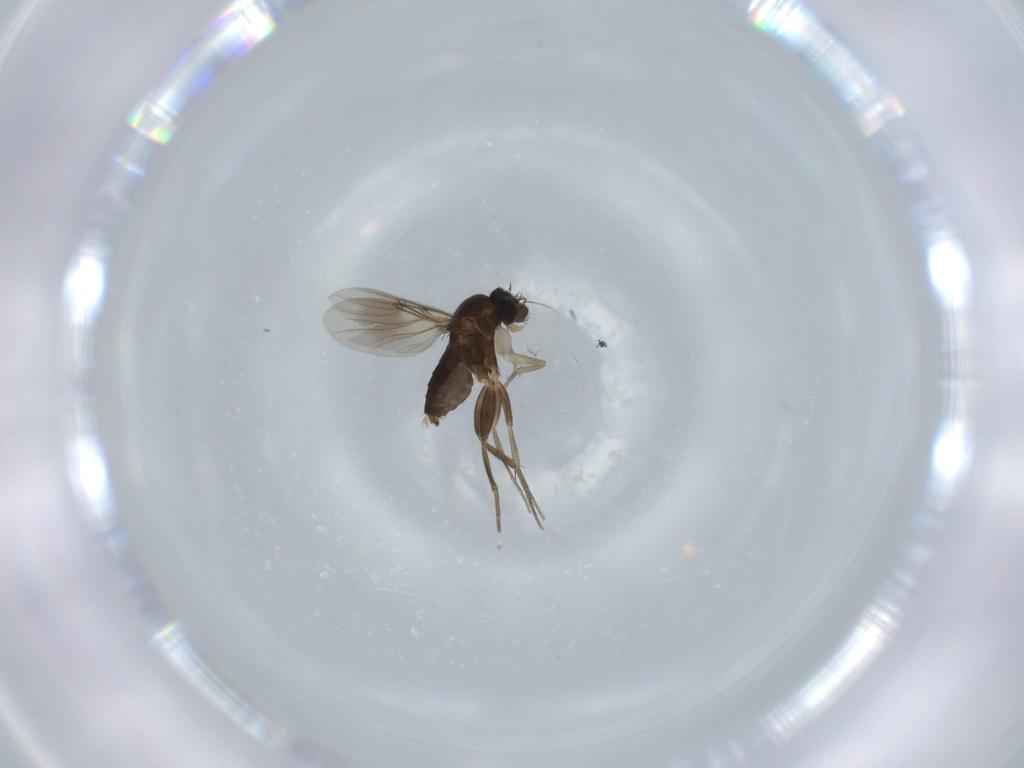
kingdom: Animalia
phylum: Arthropoda
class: Insecta
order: Diptera
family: Phoridae
